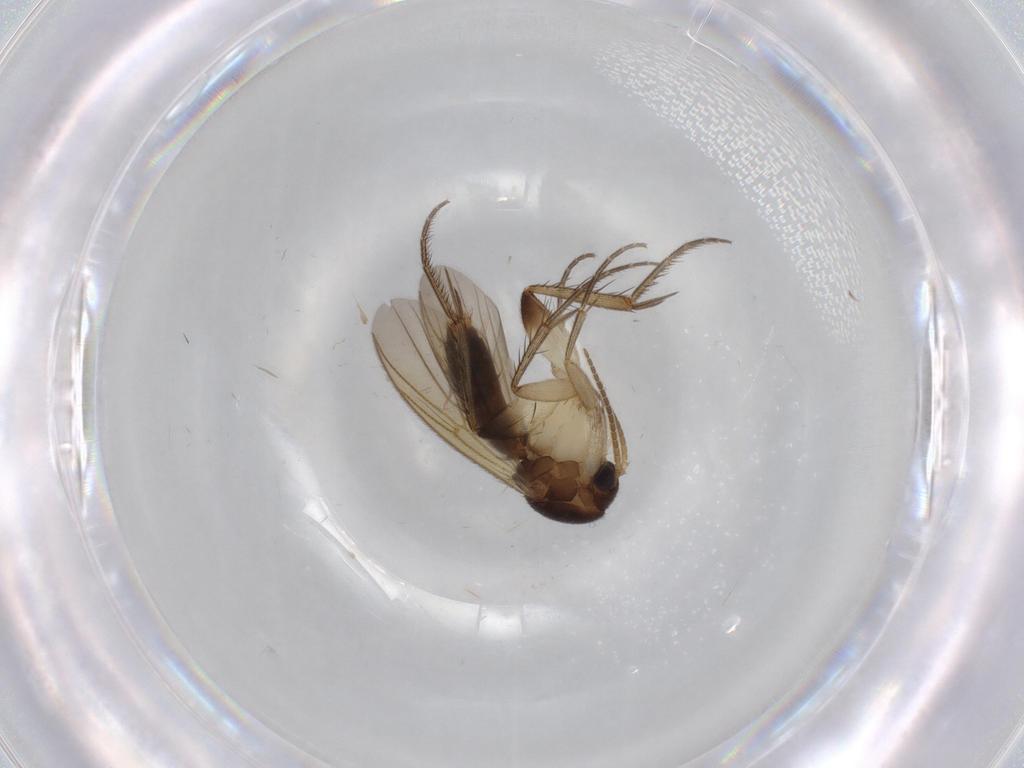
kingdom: Animalia
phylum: Arthropoda
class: Insecta
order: Diptera
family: Mycetophilidae
